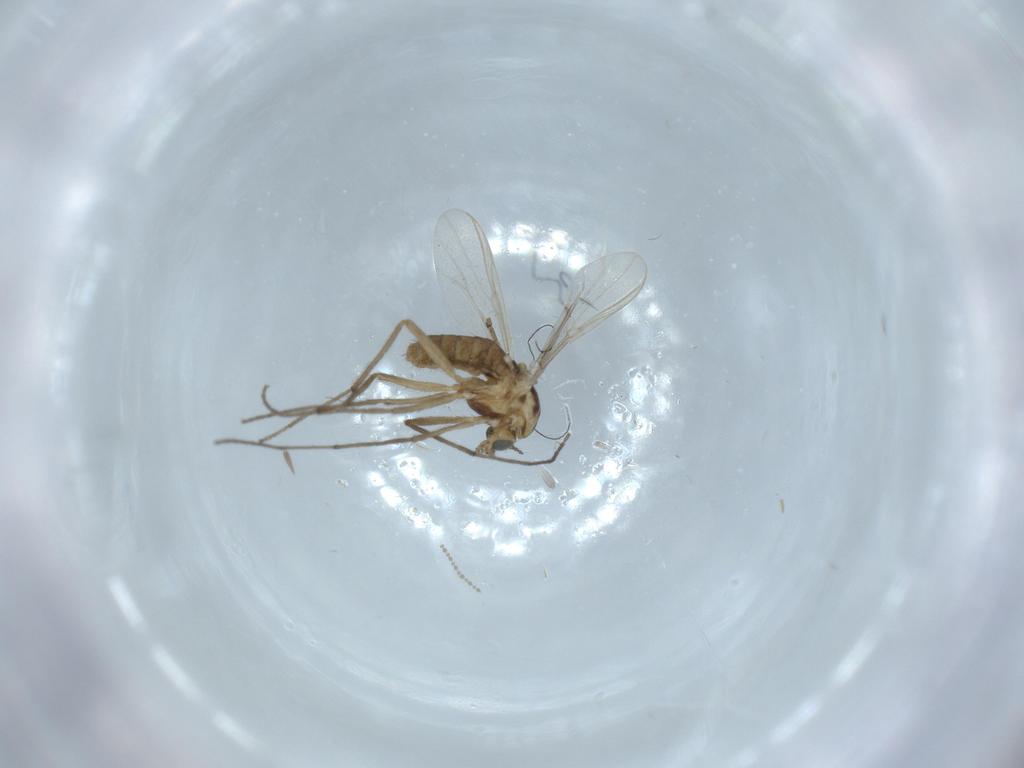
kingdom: Animalia
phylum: Arthropoda
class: Insecta
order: Diptera
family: Chironomidae
